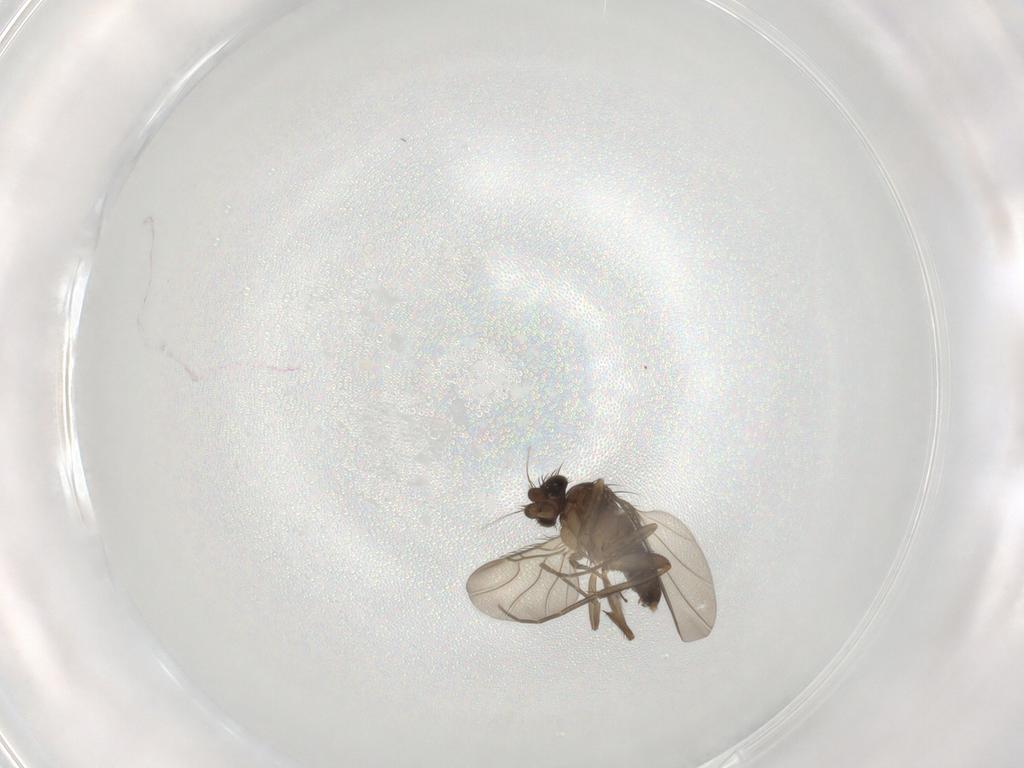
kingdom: Animalia
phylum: Arthropoda
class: Insecta
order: Diptera
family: Phoridae
